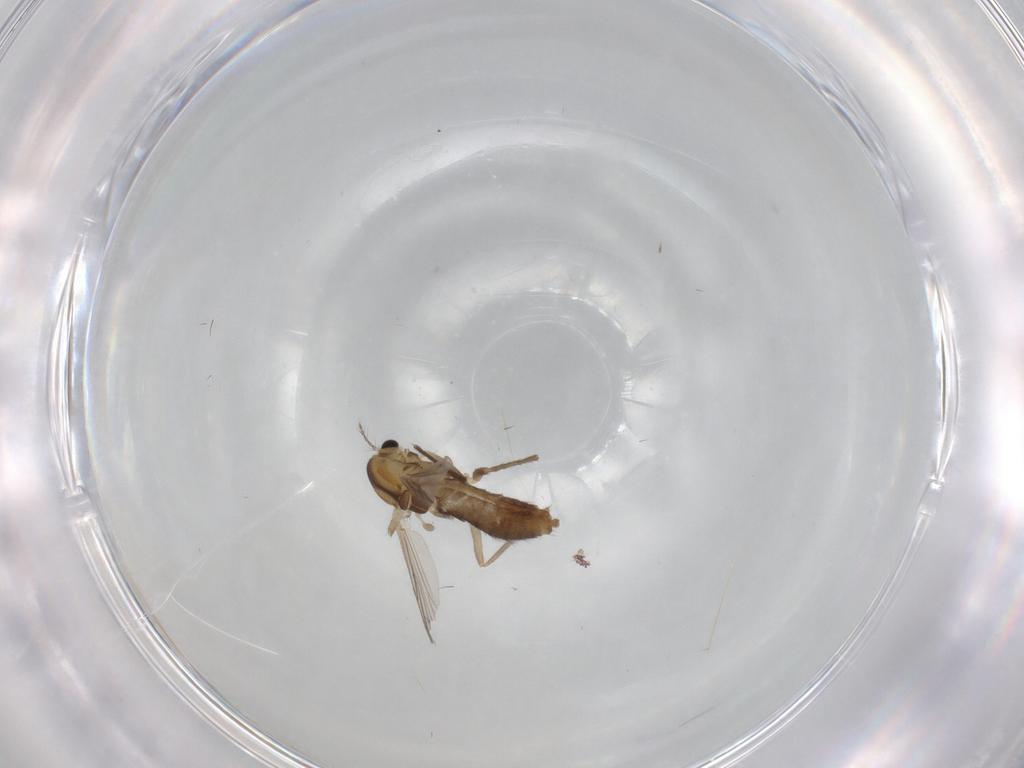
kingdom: Animalia
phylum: Arthropoda
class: Insecta
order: Diptera
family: Chironomidae
